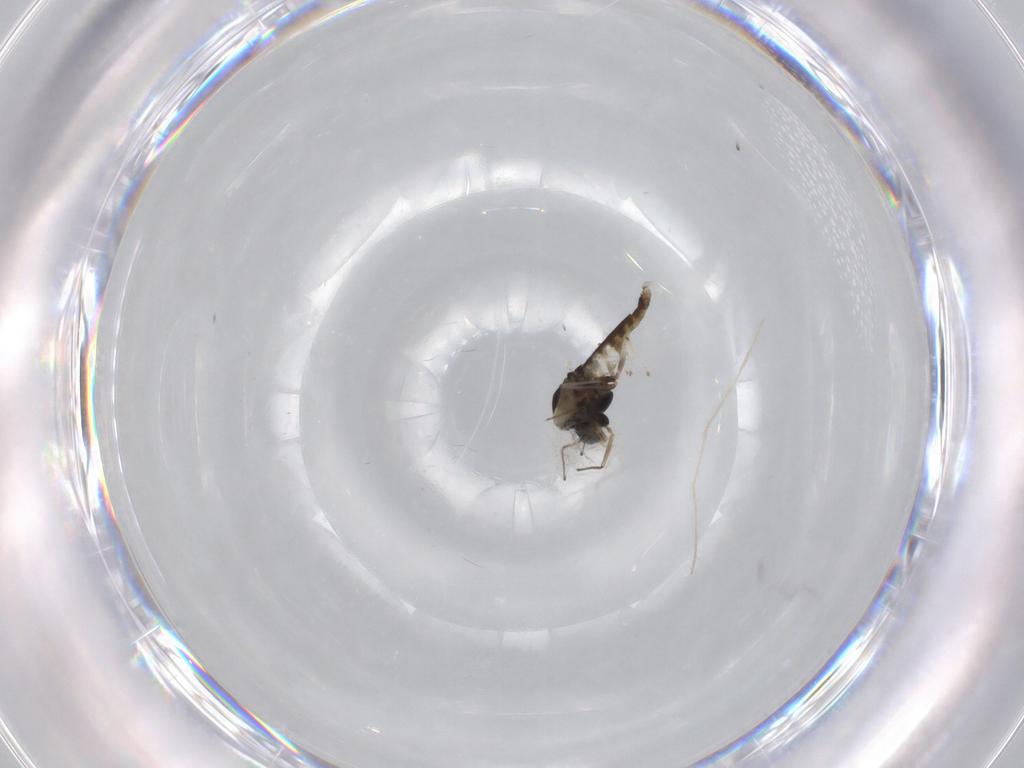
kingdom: Animalia
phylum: Arthropoda
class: Insecta
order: Diptera
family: Chironomidae
